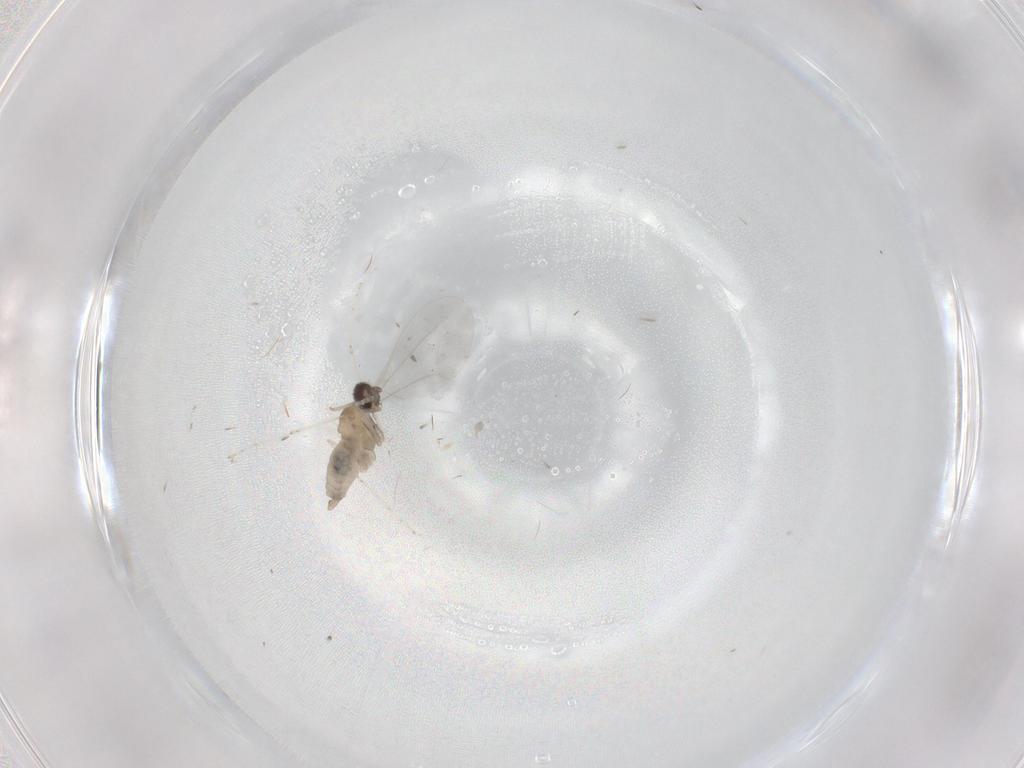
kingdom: Animalia
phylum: Arthropoda
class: Insecta
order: Diptera
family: Cecidomyiidae
